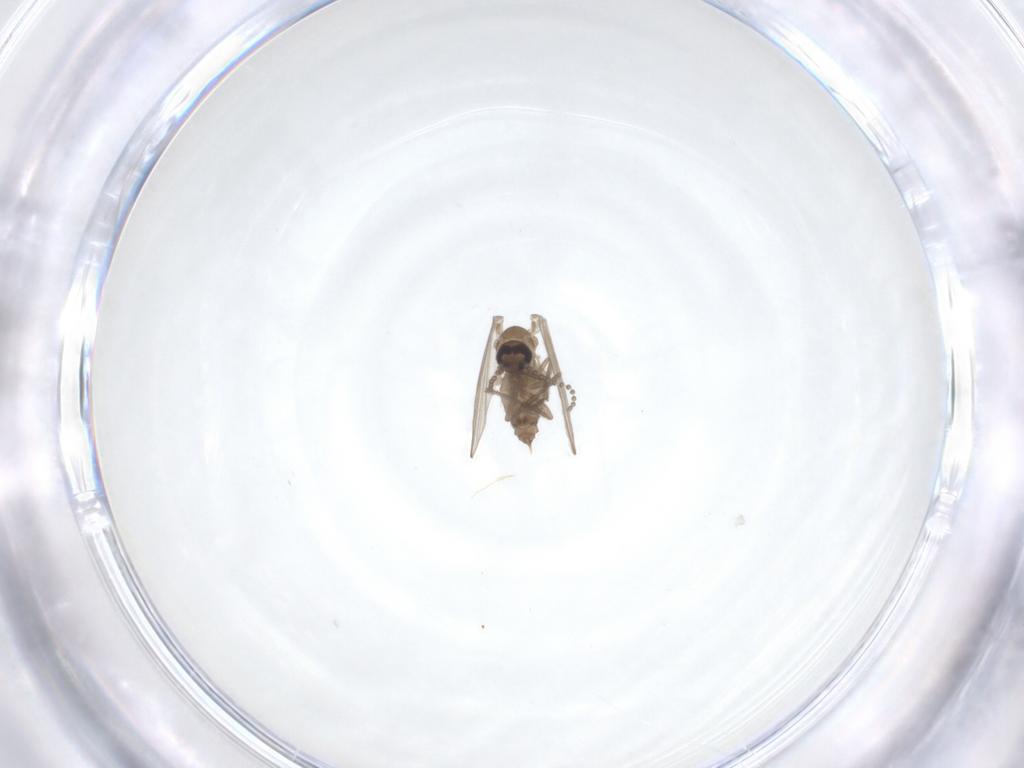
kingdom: Animalia
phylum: Arthropoda
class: Insecta
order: Diptera
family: Psychodidae
